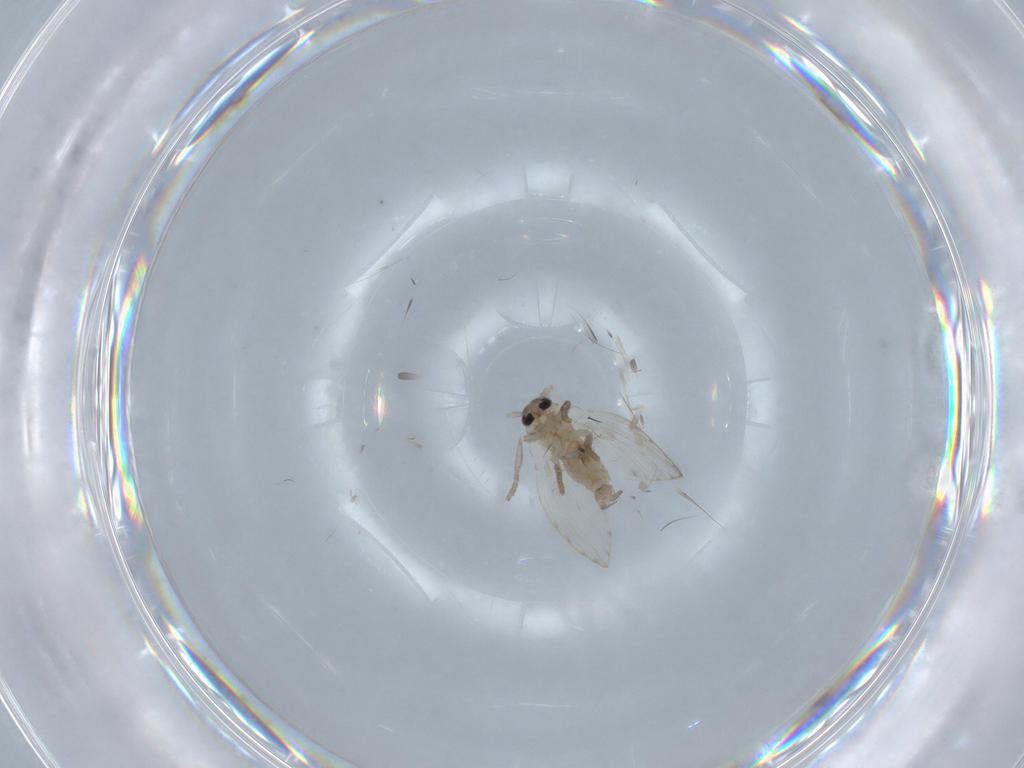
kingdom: Animalia
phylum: Arthropoda
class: Insecta
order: Diptera
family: Psychodidae
